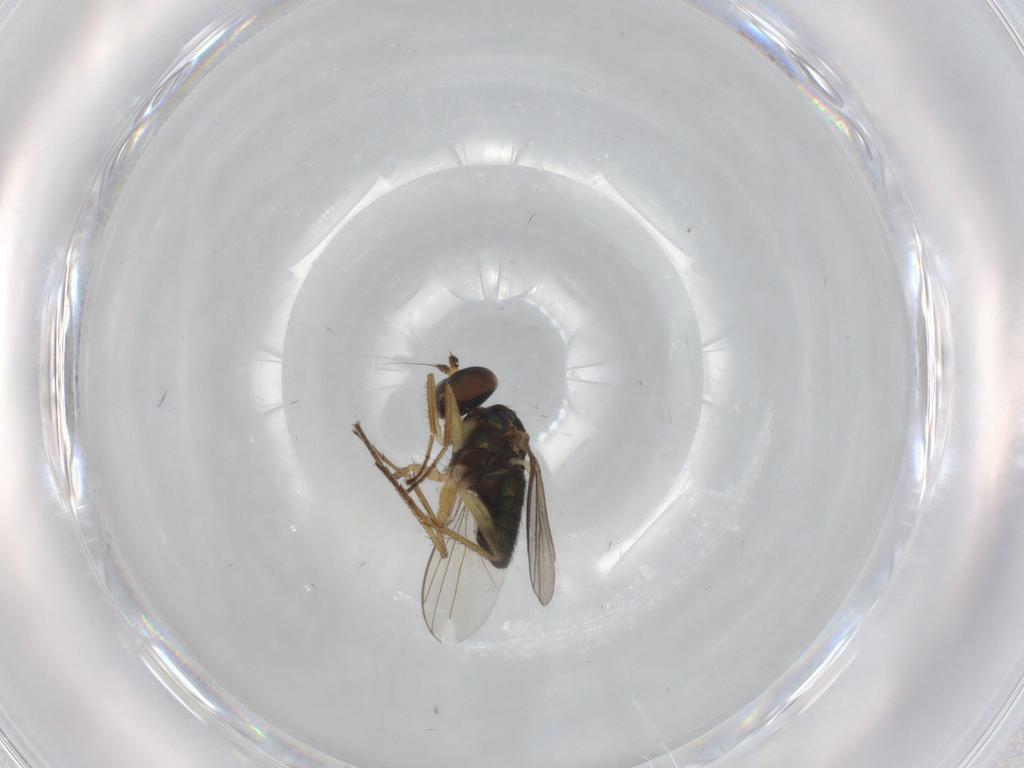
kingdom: Animalia
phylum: Arthropoda
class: Insecta
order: Diptera
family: Dolichopodidae
